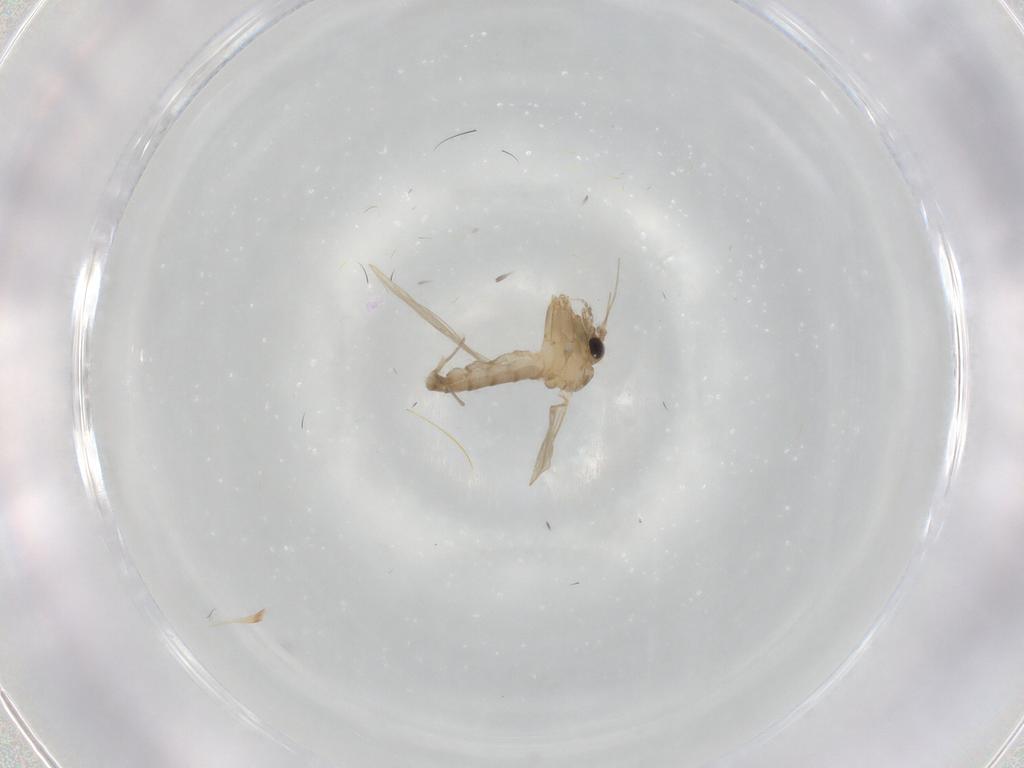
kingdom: Animalia
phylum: Arthropoda
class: Insecta
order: Diptera
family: Psychodidae
